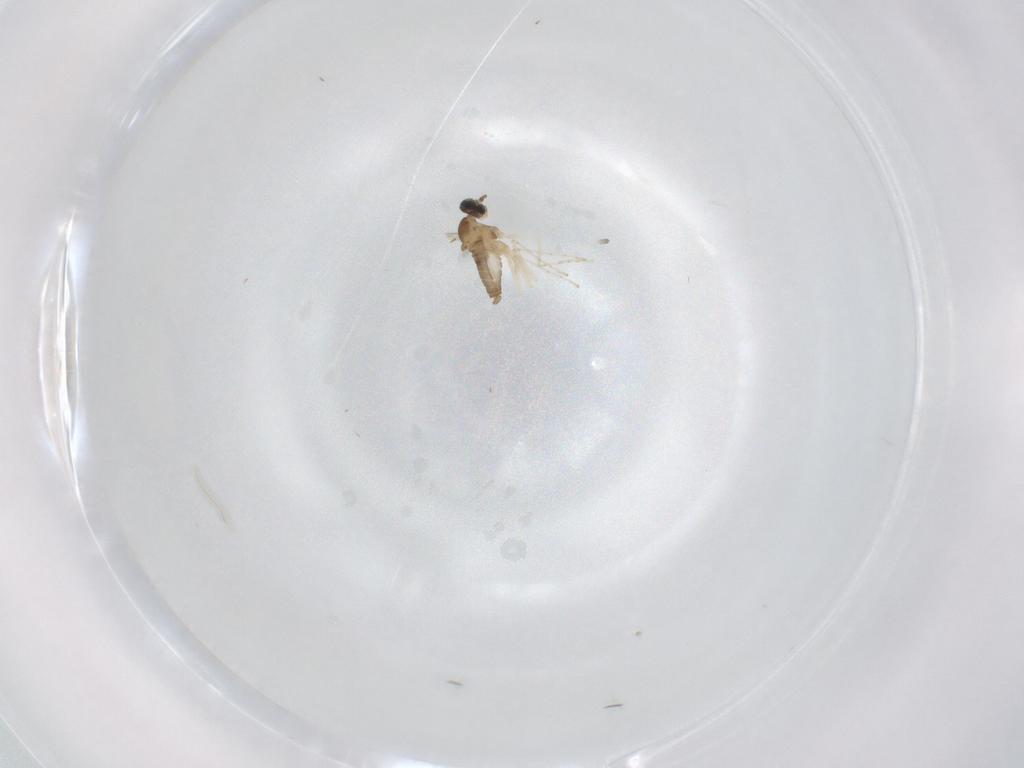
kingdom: Animalia
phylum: Arthropoda
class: Insecta
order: Diptera
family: Cecidomyiidae
